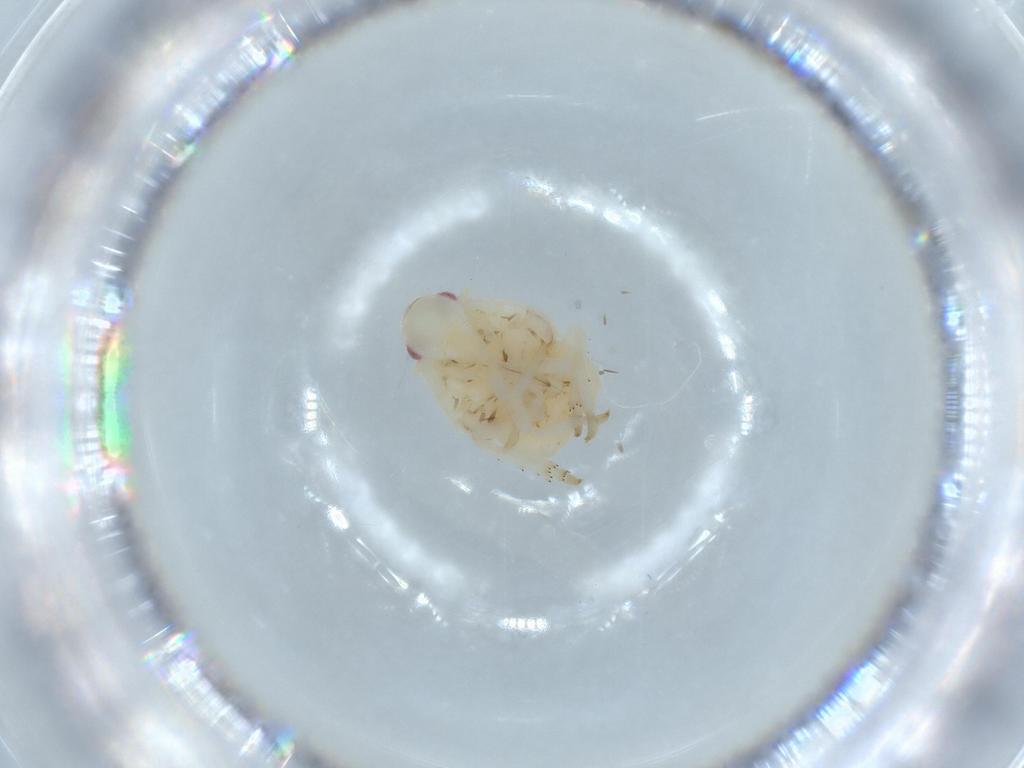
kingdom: Animalia
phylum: Arthropoda
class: Insecta
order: Hemiptera
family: Flatidae
